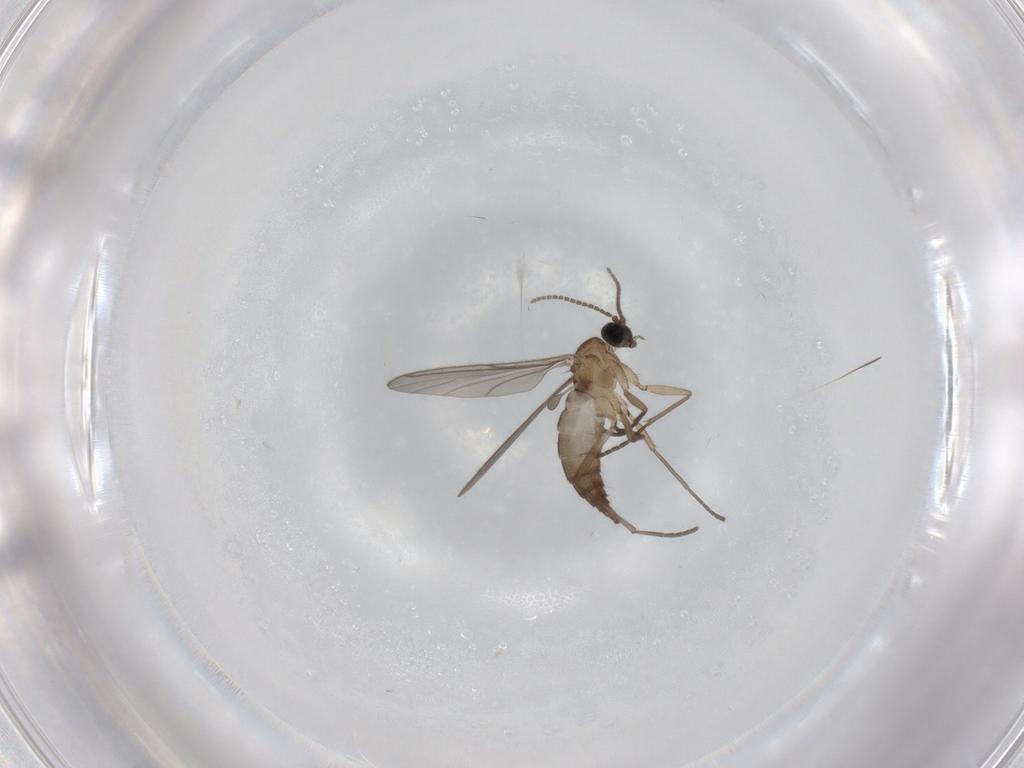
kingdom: Animalia
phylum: Arthropoda
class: Insecta
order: Diptera
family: Sciaridae
